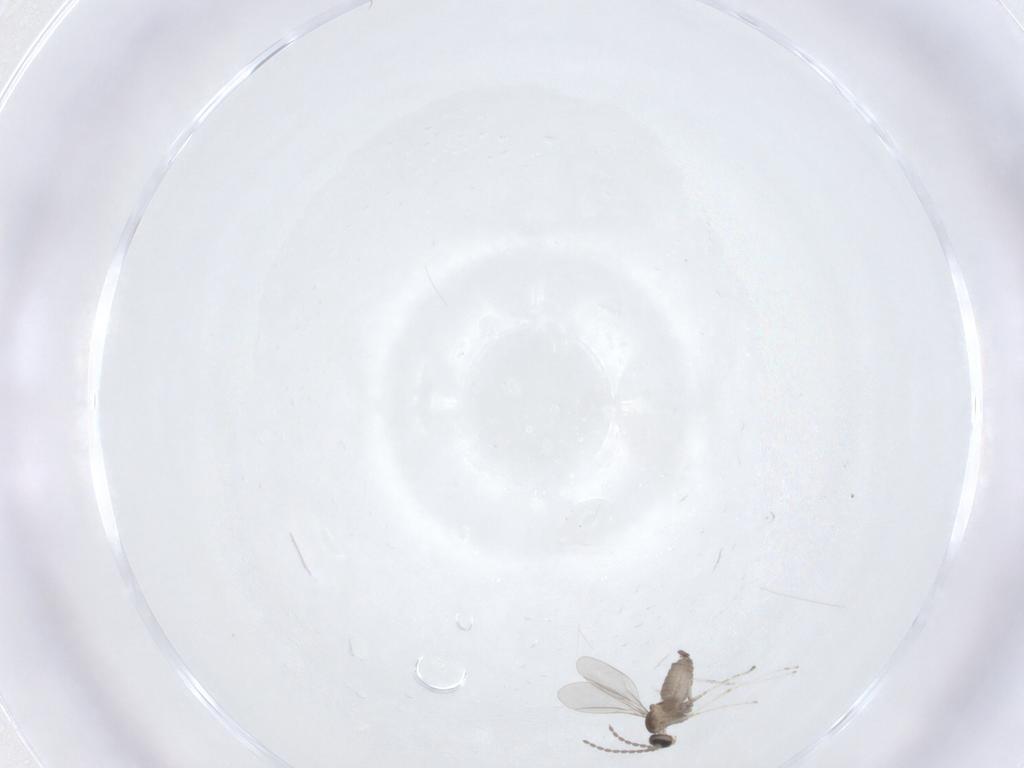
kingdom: Animalia
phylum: Arthropoda
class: Insecta
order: Diptera
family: Cecidomyiidae
